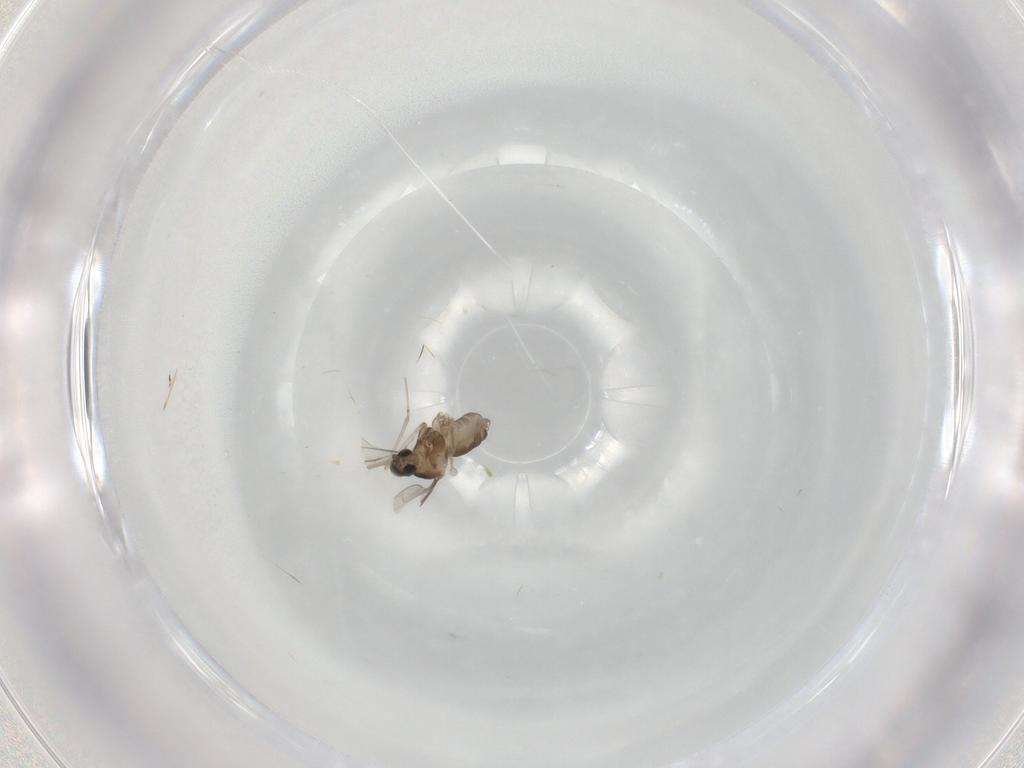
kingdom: Animalia
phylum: Arthropoda
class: Insecta
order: Diptera
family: Cecidomyiidae
